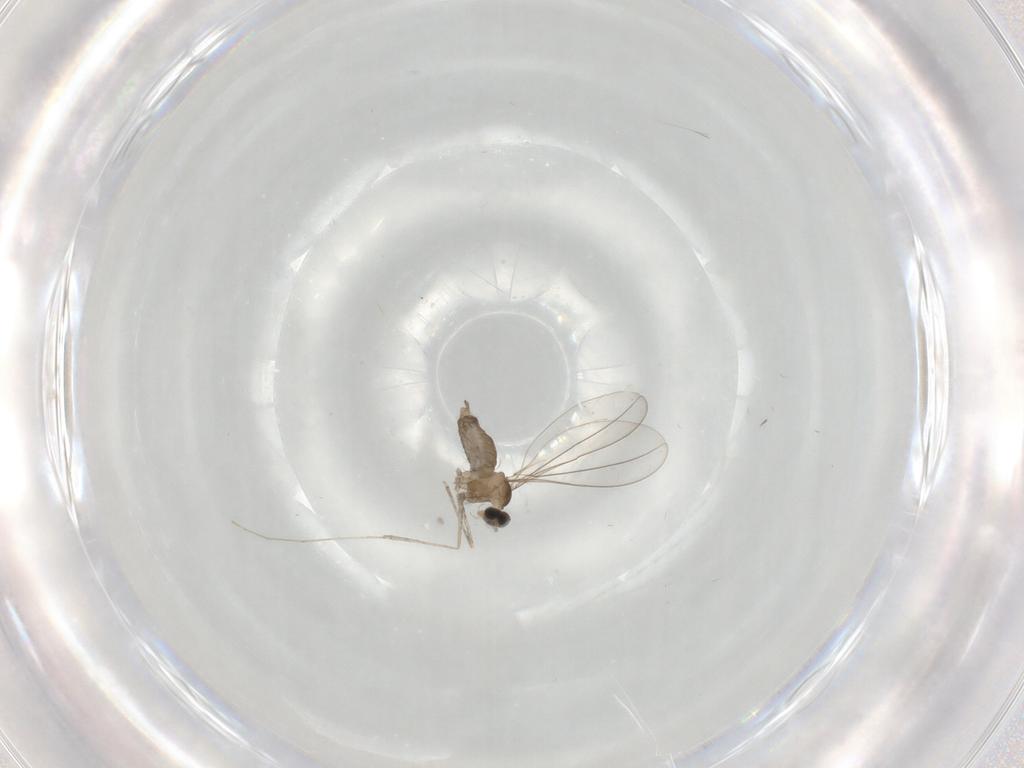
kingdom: Animalia
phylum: Arthropoda
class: Insecta
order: Diptera
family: Cecidomyiidae
